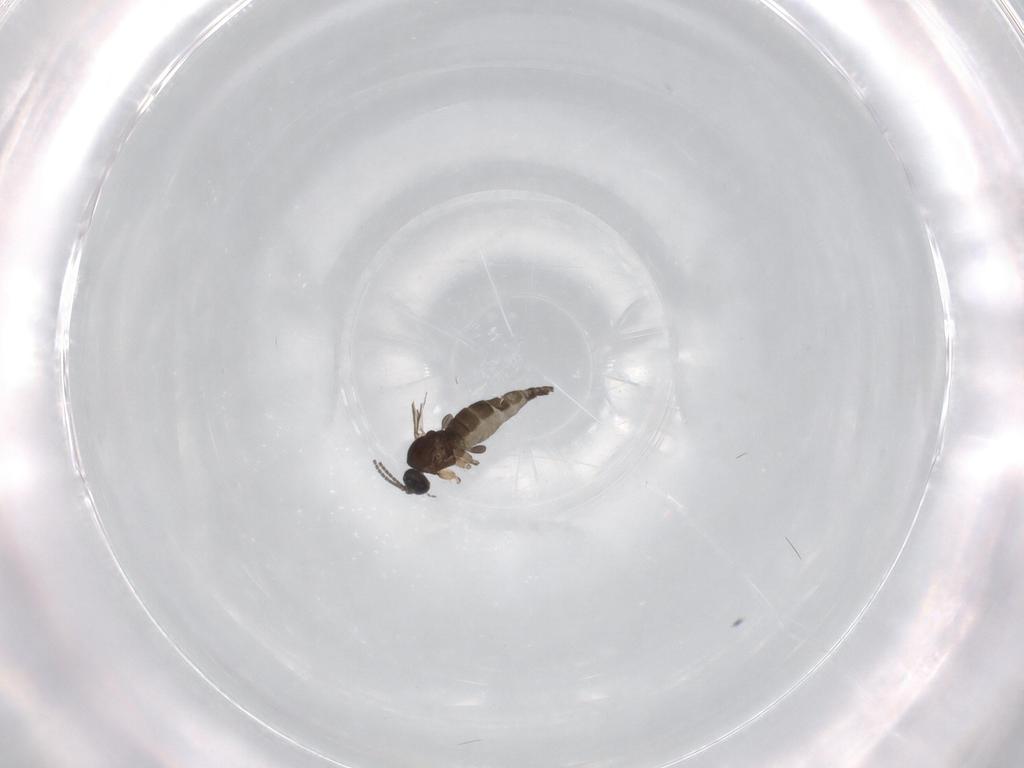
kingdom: Animalia
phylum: Arthropoda
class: Insecta
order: Diptera
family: Sciaridae
